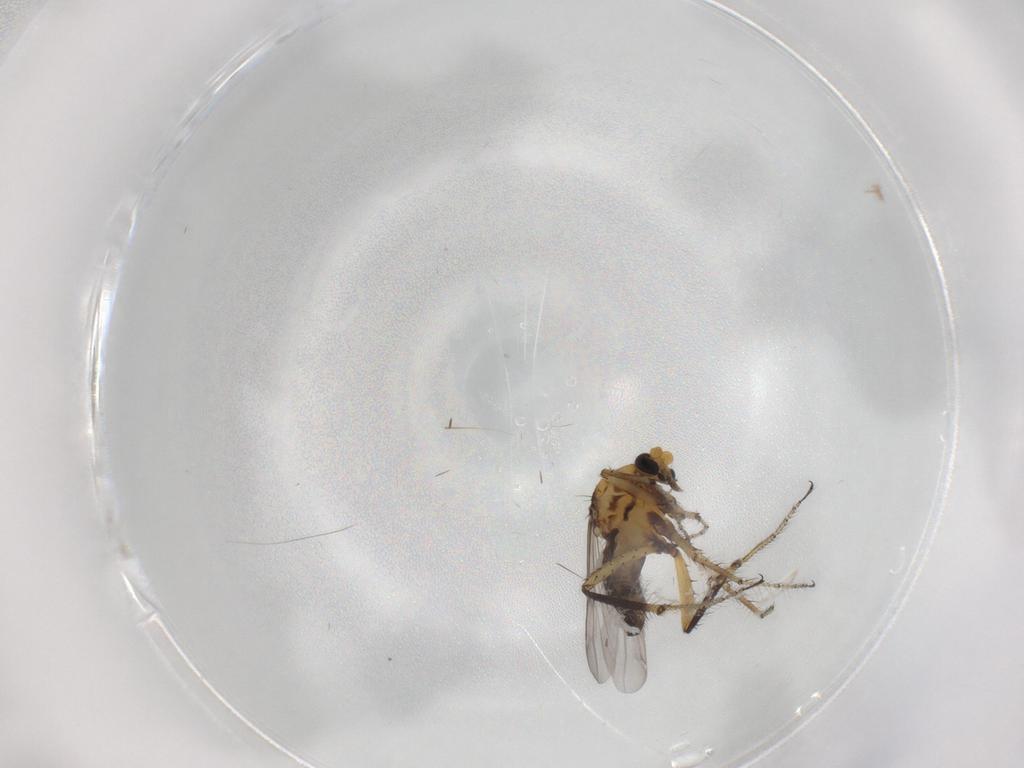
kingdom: Animalia
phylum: Arthropoda
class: Insecta
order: Diptera
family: Ceratopogonidae
